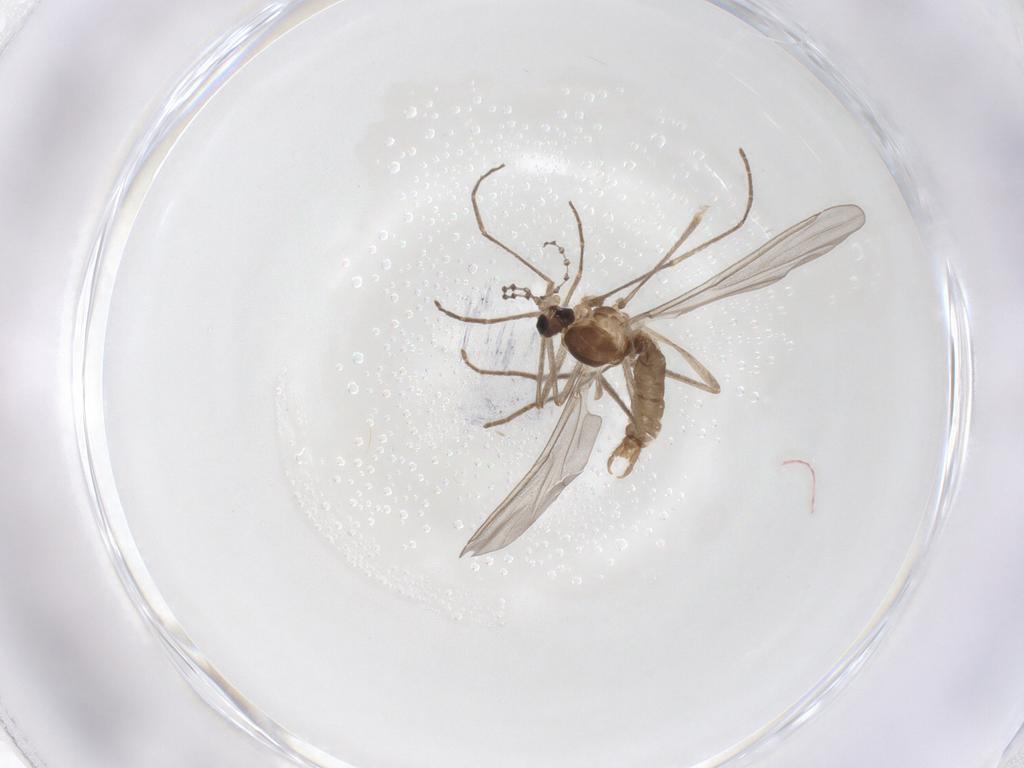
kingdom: Animalia
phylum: Arthropoda
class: Insecta
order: Diptera
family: Cecidomyiidae
